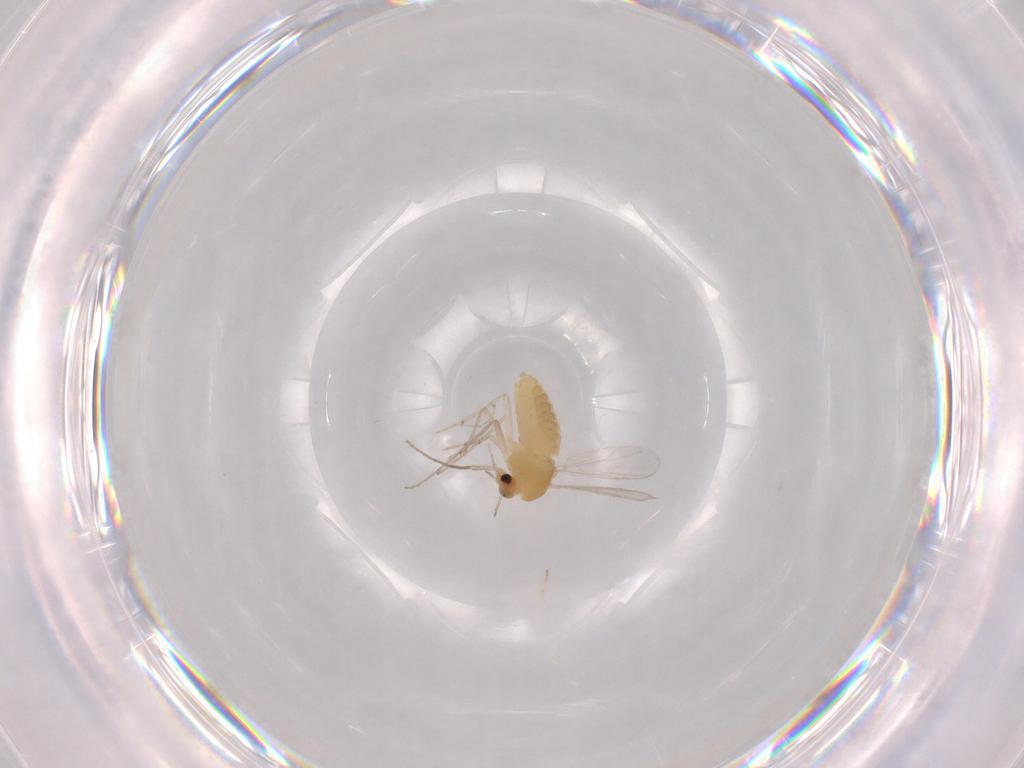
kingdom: Animalia
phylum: Arthropoda
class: Insecta
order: Diptera
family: Chironomidae
